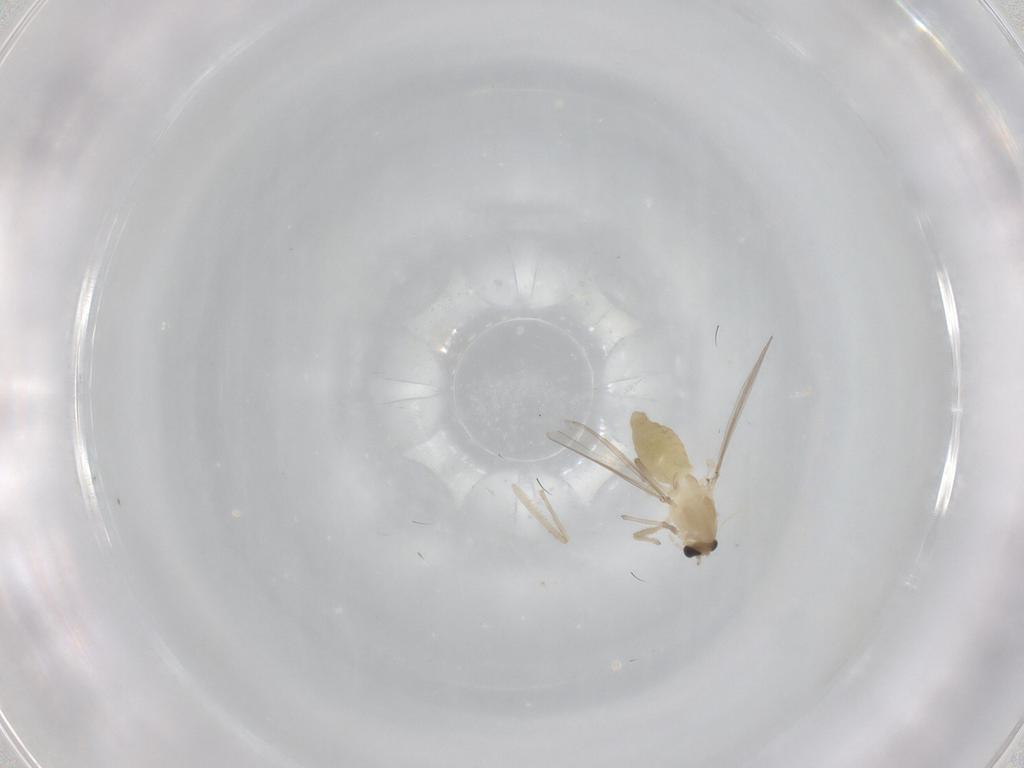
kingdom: Animalia
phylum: Arthropoda
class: Insecta
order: Diptera
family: Chironomidae
